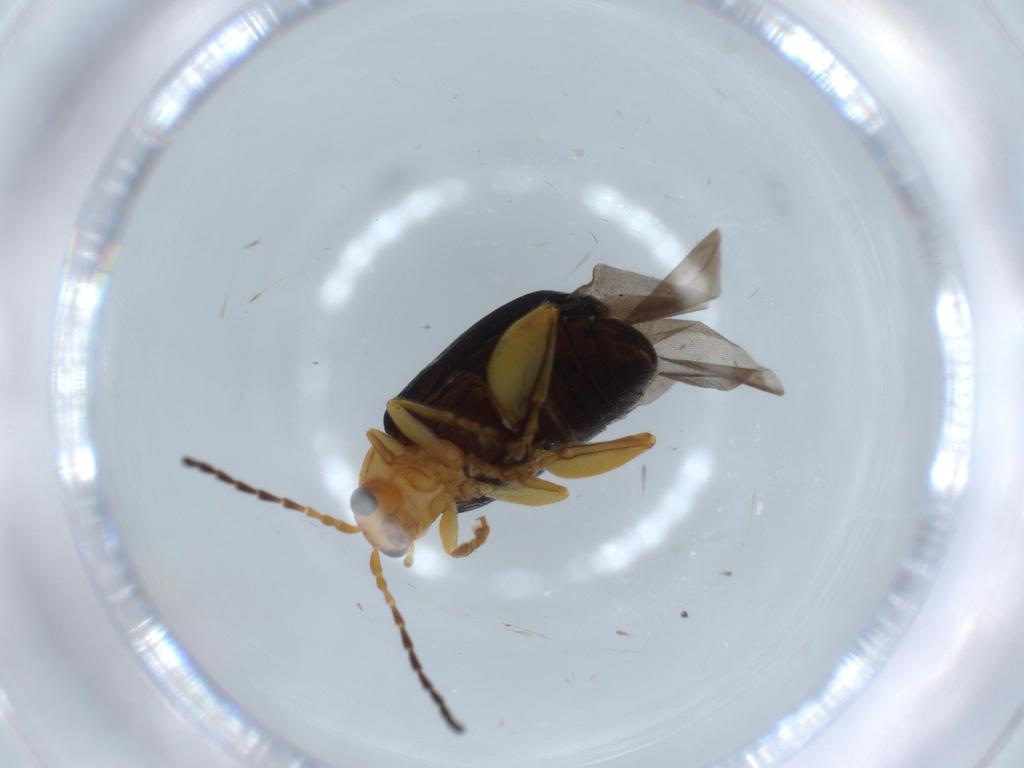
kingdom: Animalia
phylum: Arthropoda
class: Insecta
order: Coleoptera
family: Chrysomelidae
